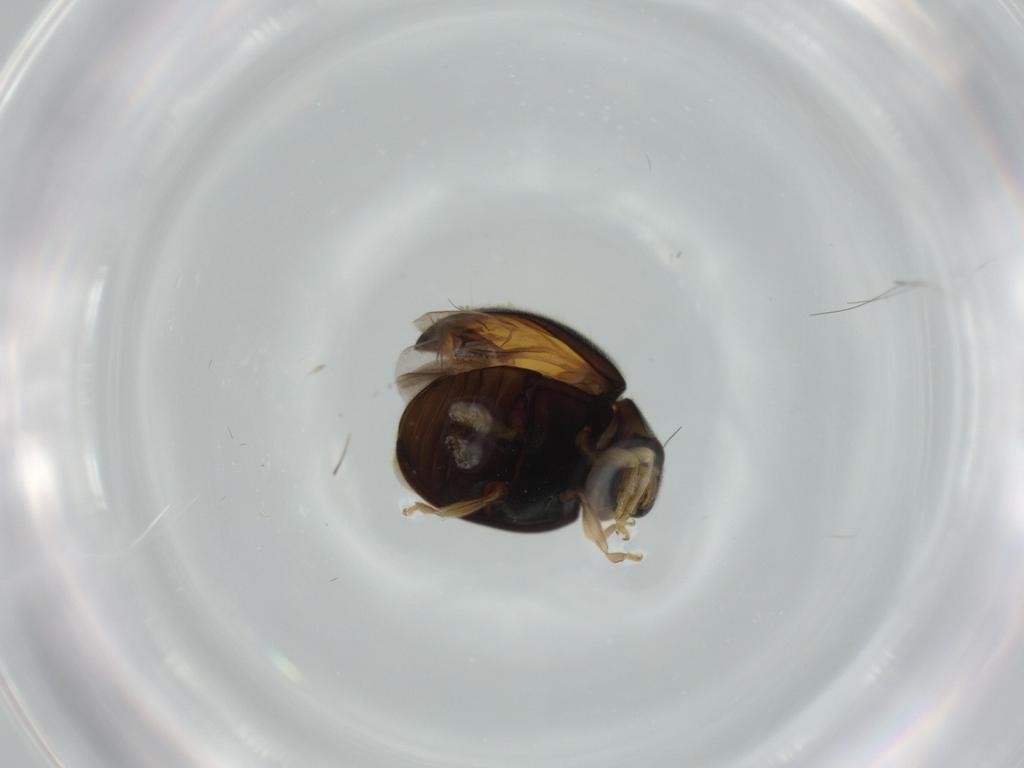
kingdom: Animalia
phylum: Arthropoda
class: Insecta
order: Coleoptera
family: Coccinellidae
